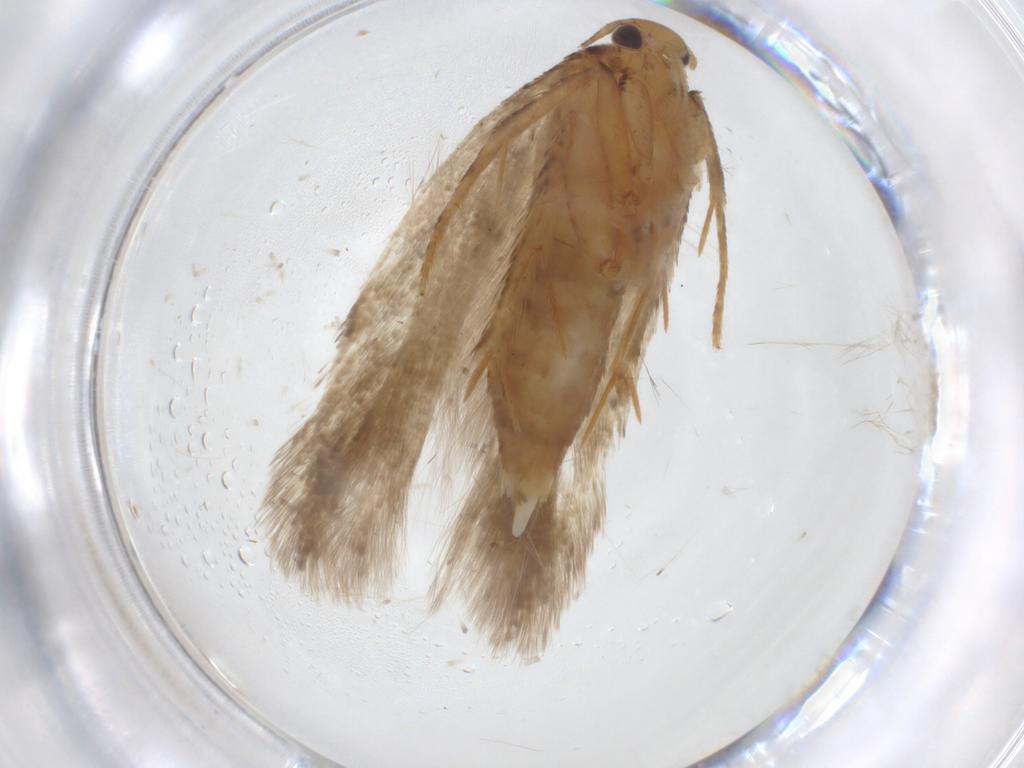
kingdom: Animalia
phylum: Arthropoda
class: Insecta
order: Lepidoptera
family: Gelechiidae
